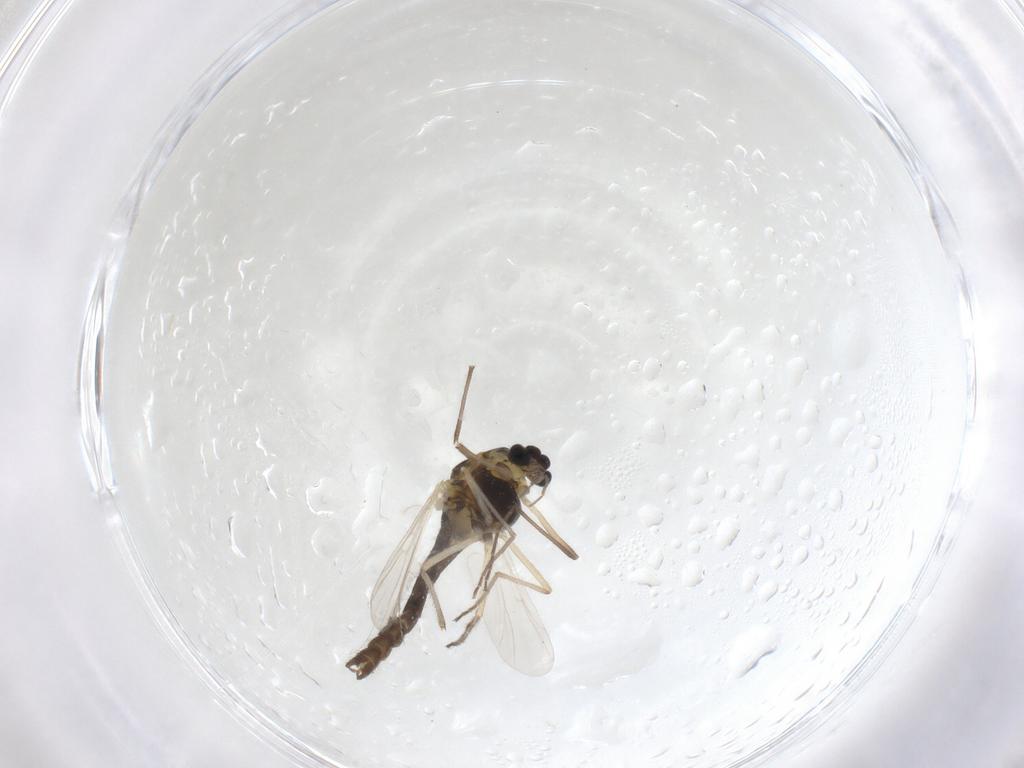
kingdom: Animalia
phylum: Arthropoda
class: Insecta
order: Diptera
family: Chironomidae
